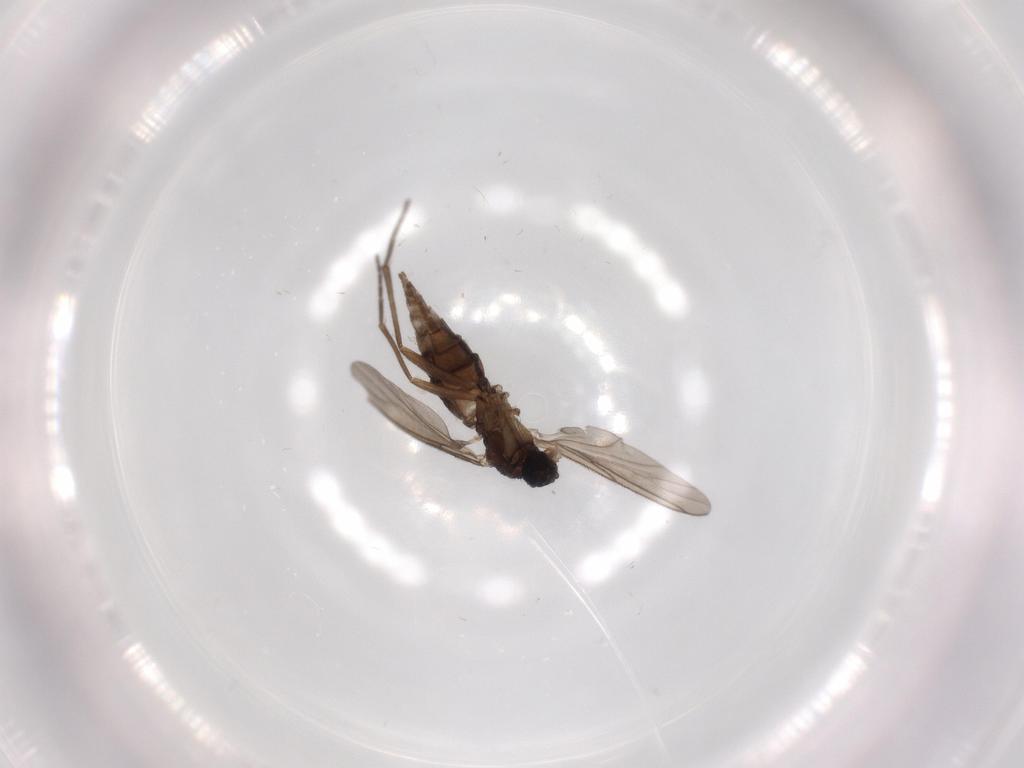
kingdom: Animalia
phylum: Arthropoda
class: Insecta
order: Diptera
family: Sciaridae
